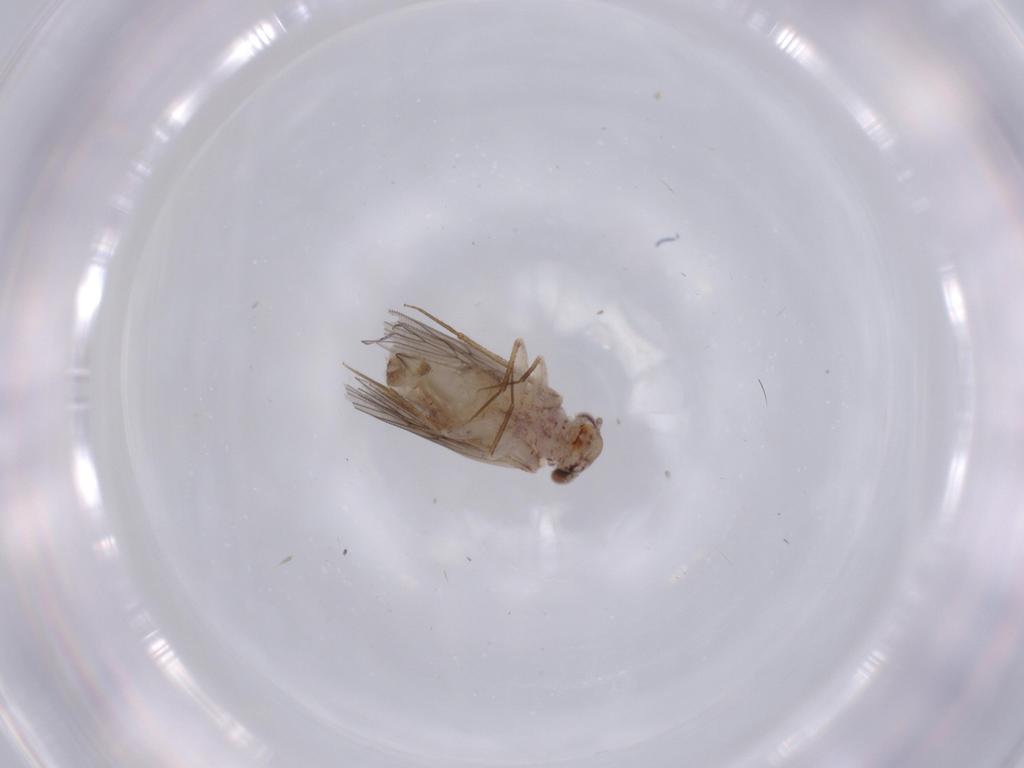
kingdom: Animalia
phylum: Arthropoda
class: Insecta
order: Psocodea
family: Lepidopsocidae
